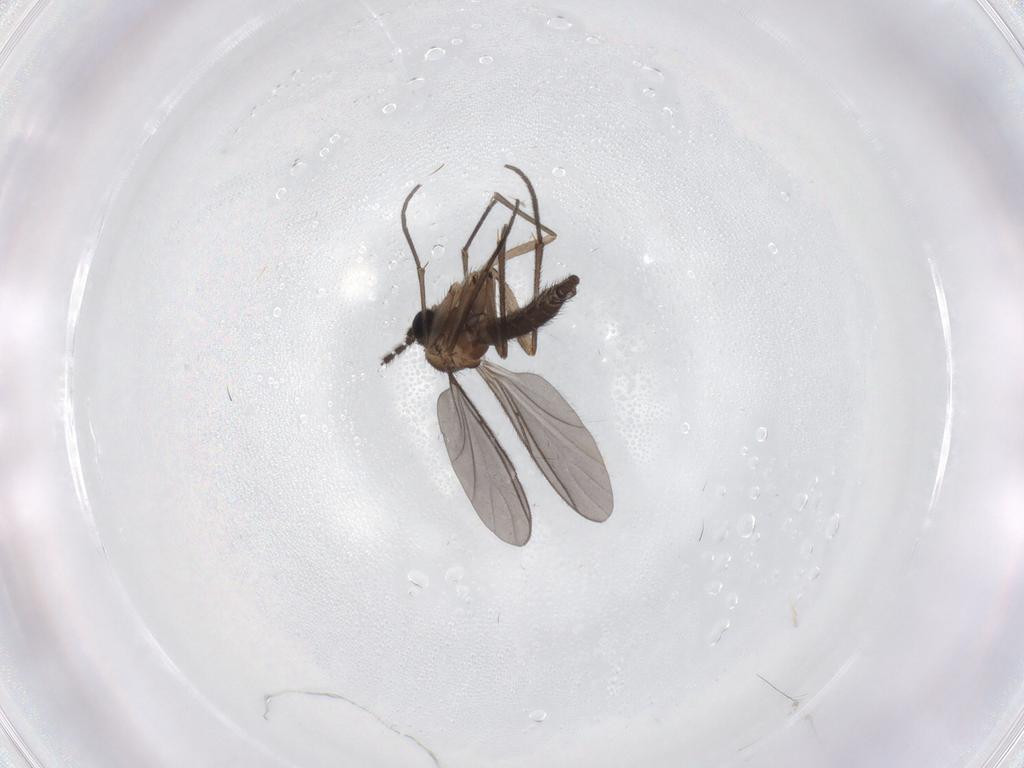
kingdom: Animalia
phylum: Arthropoda
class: Insecta
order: Diptera
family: Sciaridae
